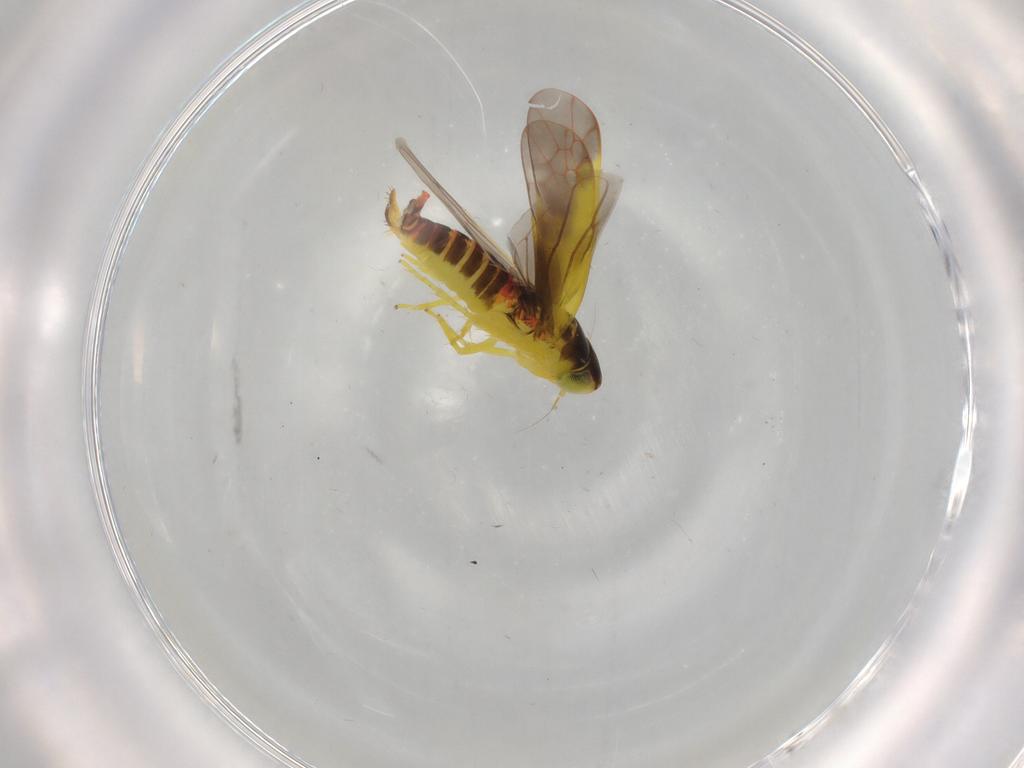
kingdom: Animalia
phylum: Arthropoda
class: Insecta
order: Hemiptera
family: Cicadellidae
